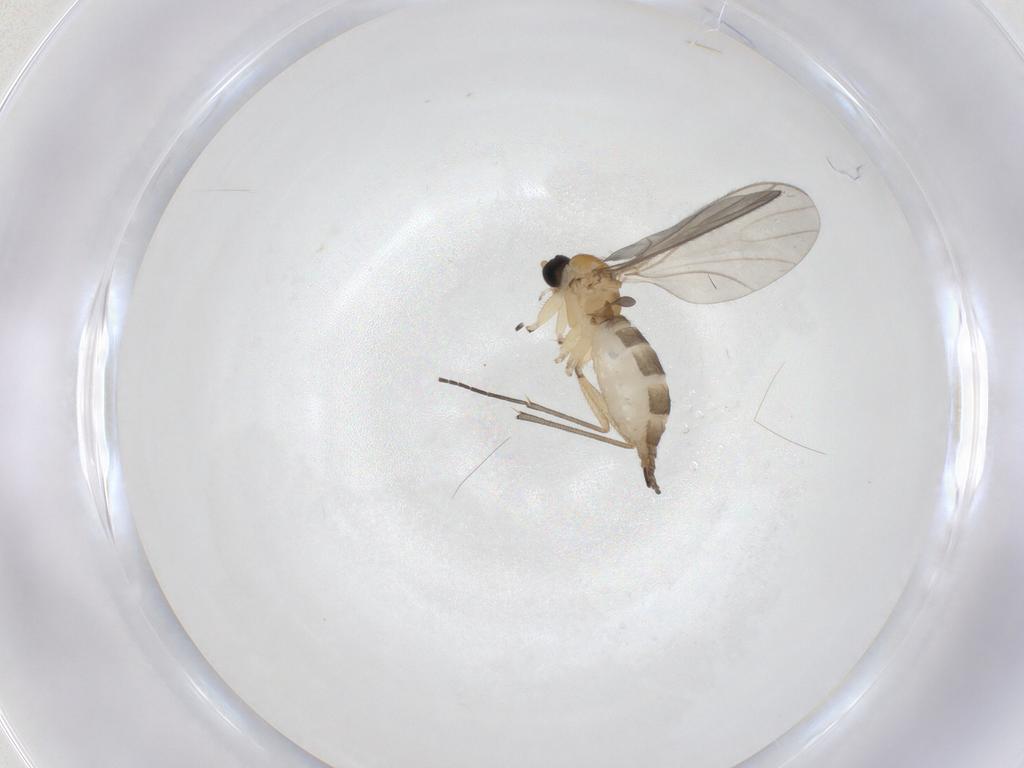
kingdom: Animalia
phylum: Arthropoda
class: Insecta
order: Diptera
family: Sciaridae
